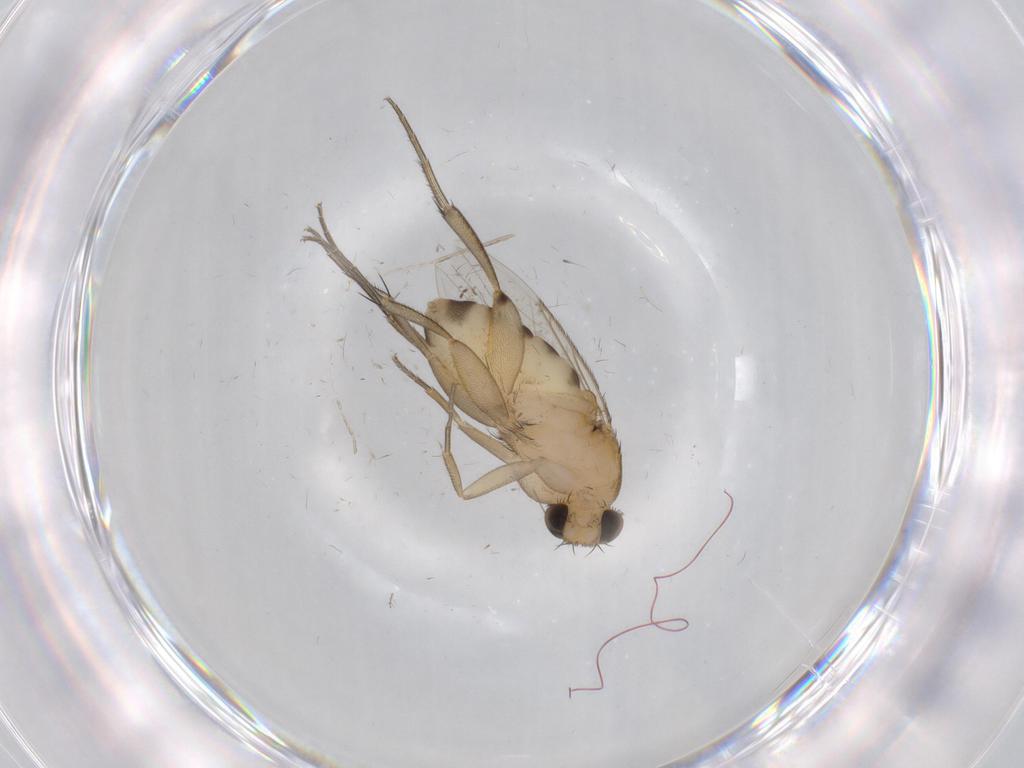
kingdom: Animalia
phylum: Arthropoda
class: Insecta
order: Diptera
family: Phoridae
